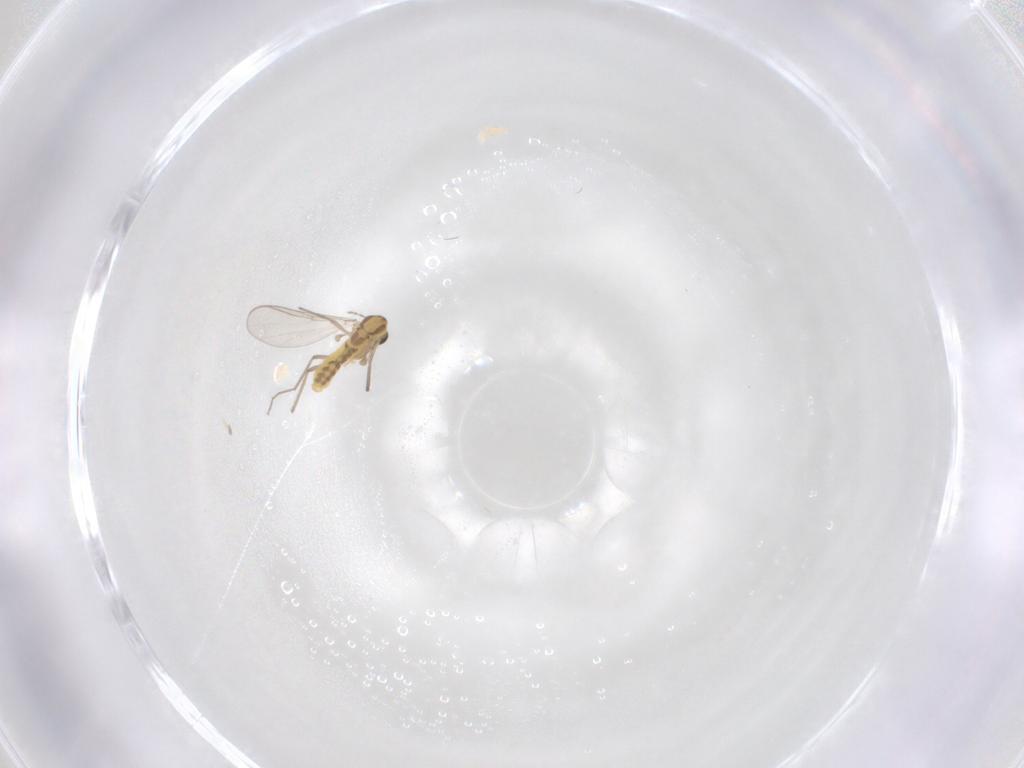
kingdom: Animalia
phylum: Arthropoda
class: Insecta
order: Diptera
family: Chironomidae
